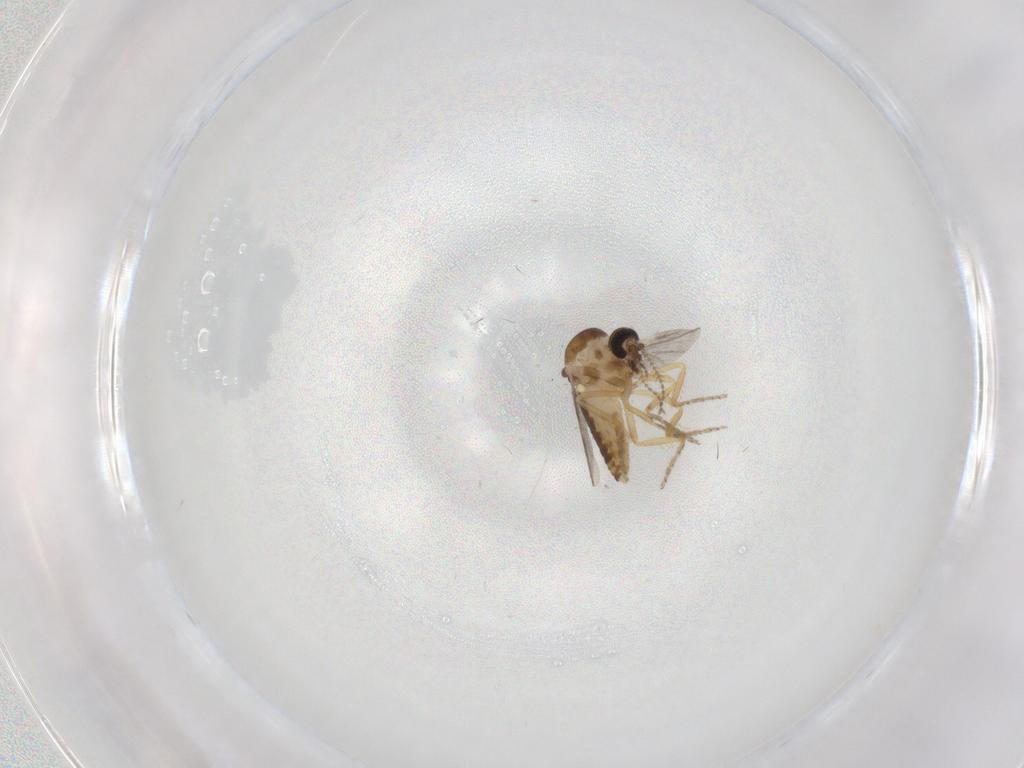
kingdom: Animalia
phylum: Arthropoda
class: Insecta
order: Diptera
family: Ceratopogonidae
